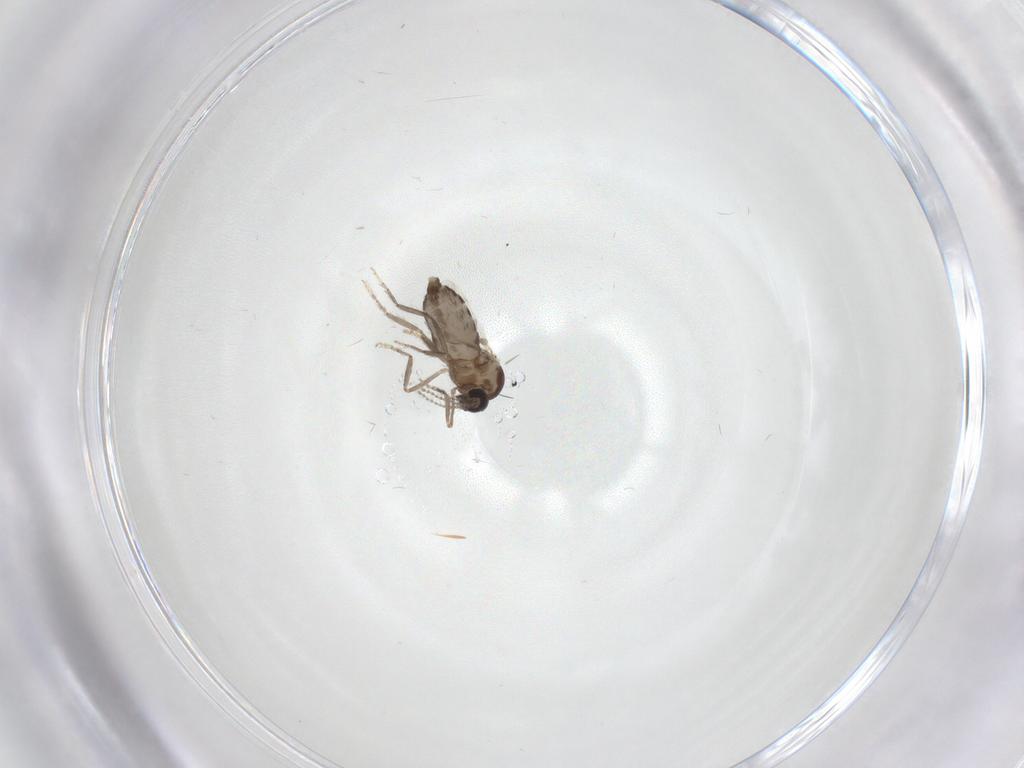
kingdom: Animalia
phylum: Arthropoda
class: Insecta
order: Diptera
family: Ceratopogonidae
